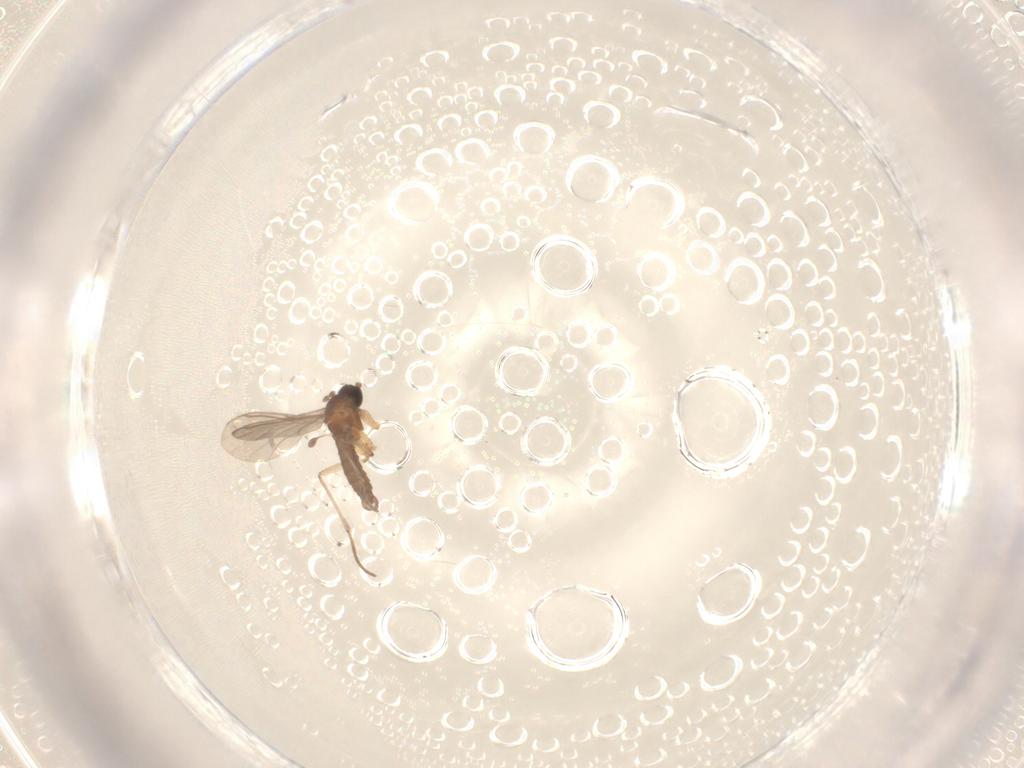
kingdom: Animalia
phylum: Arthropoda
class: Insecta
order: Diptera
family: Sciaridae
